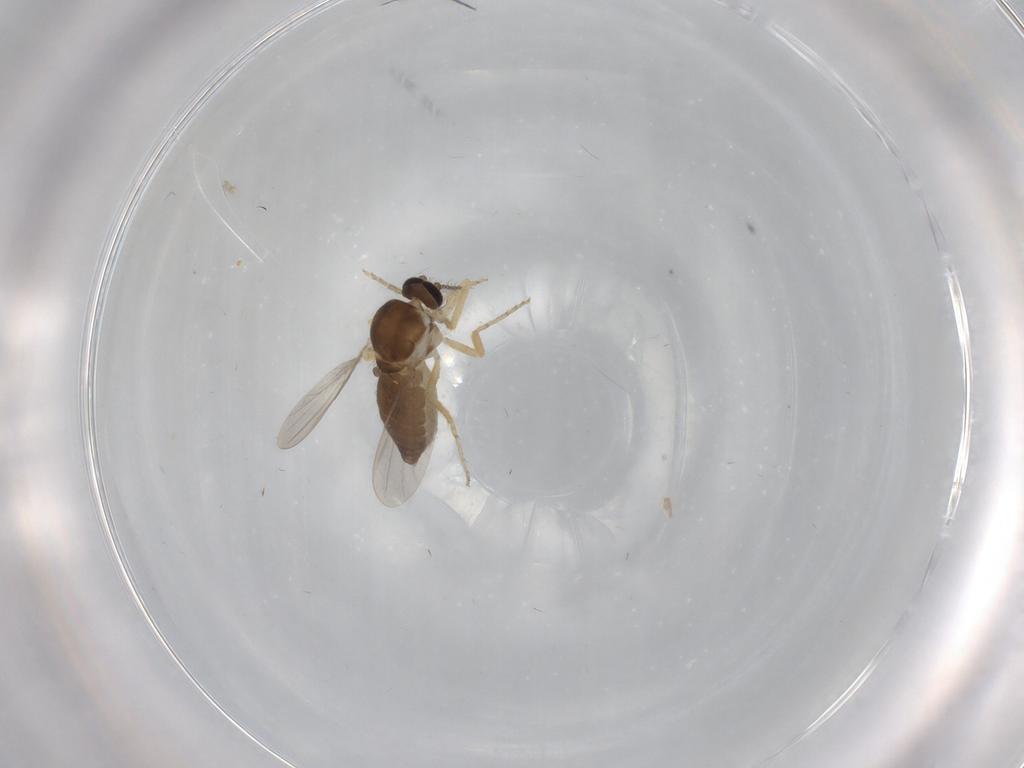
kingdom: Animalia
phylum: Arthropoda
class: Insecta
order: Diptera
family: Ceratopogonidae
